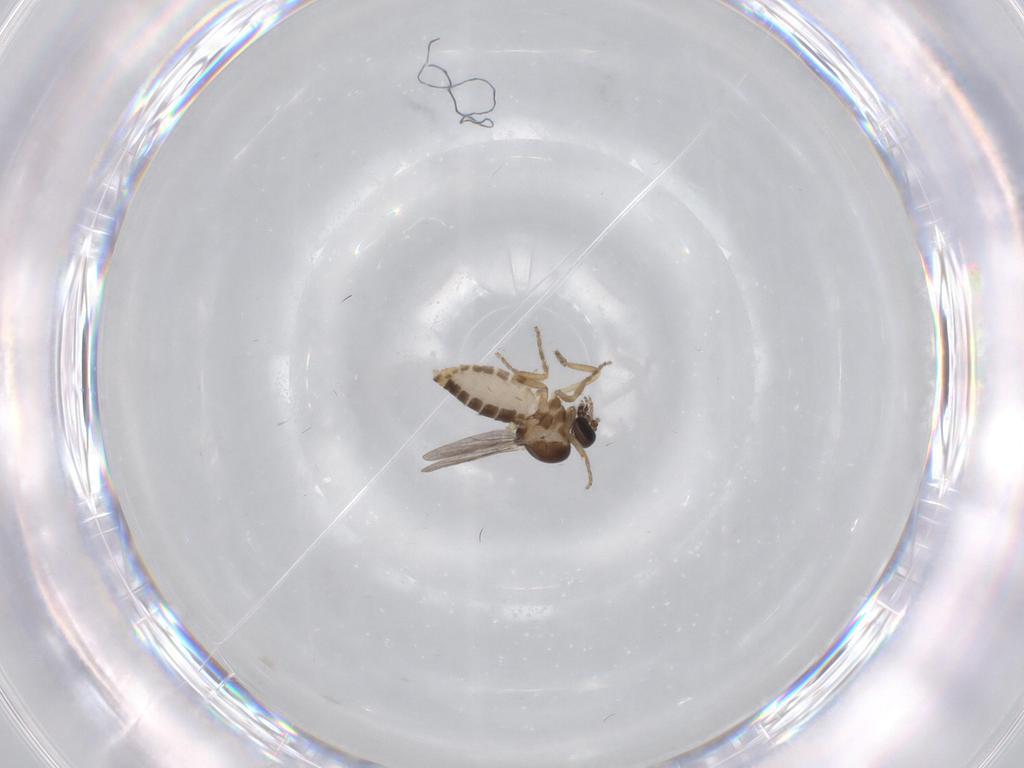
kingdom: Animalia
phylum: Arthropoda
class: Insecta
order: Diptera
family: Ceratopogonidae
